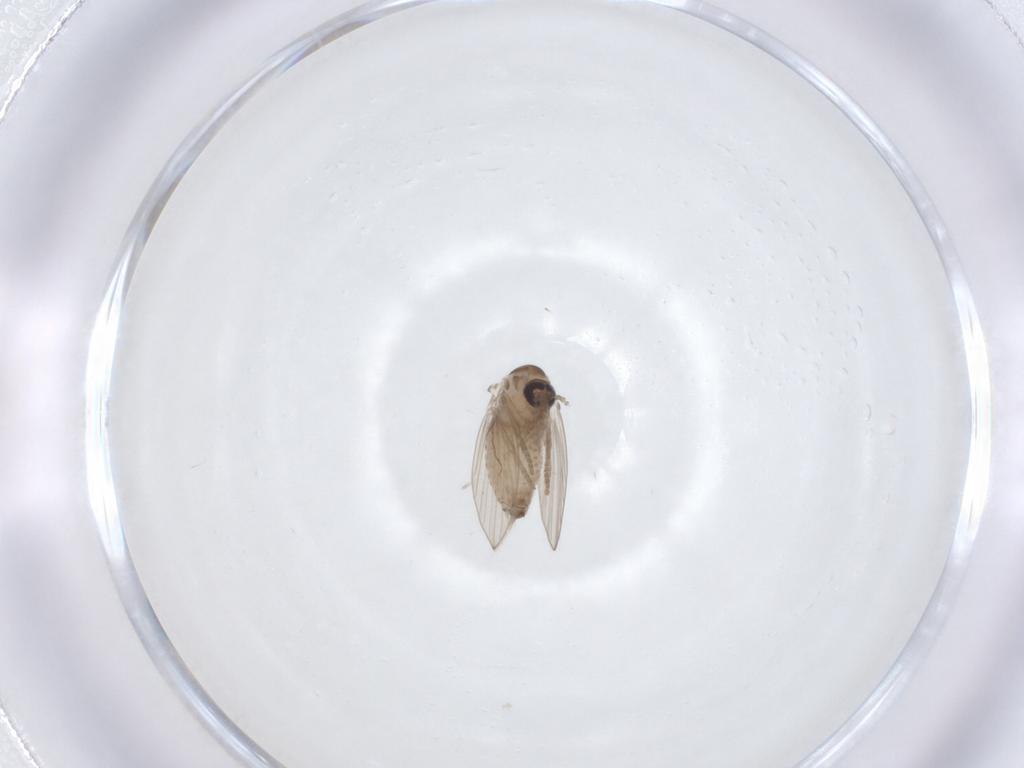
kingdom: Animalia
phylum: Arthropoda
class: Insecta
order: Diptera
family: Psychodidae
